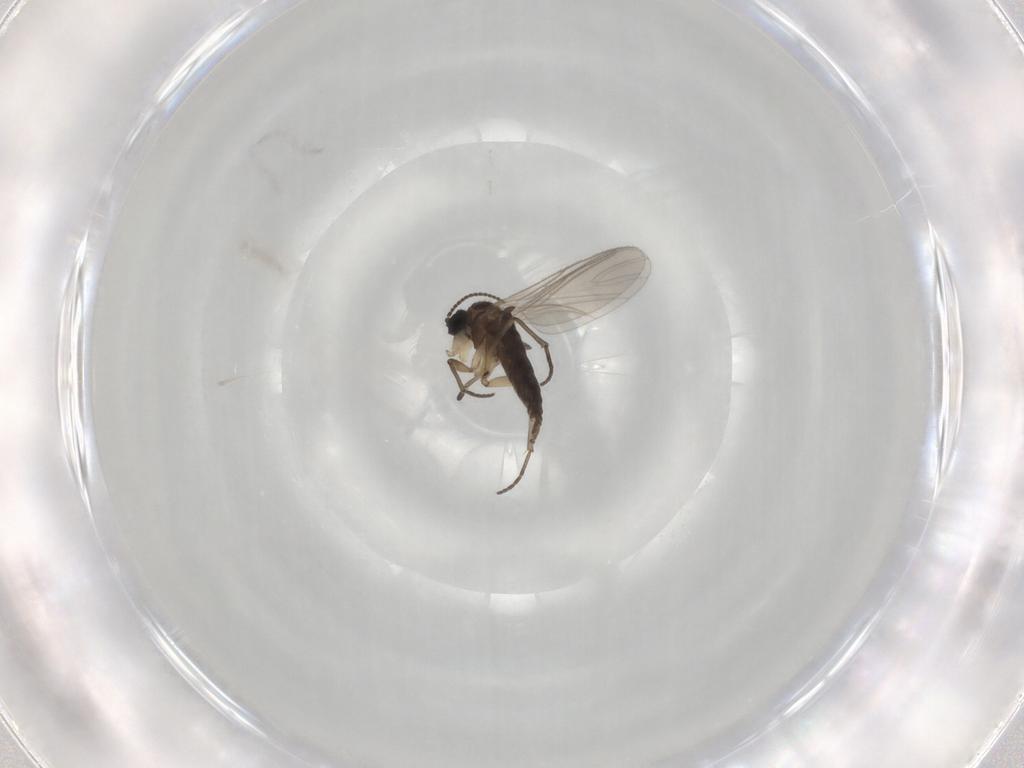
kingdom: Animalia
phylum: Arthropoda
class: Insecta
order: Diptera
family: Sciaridae
